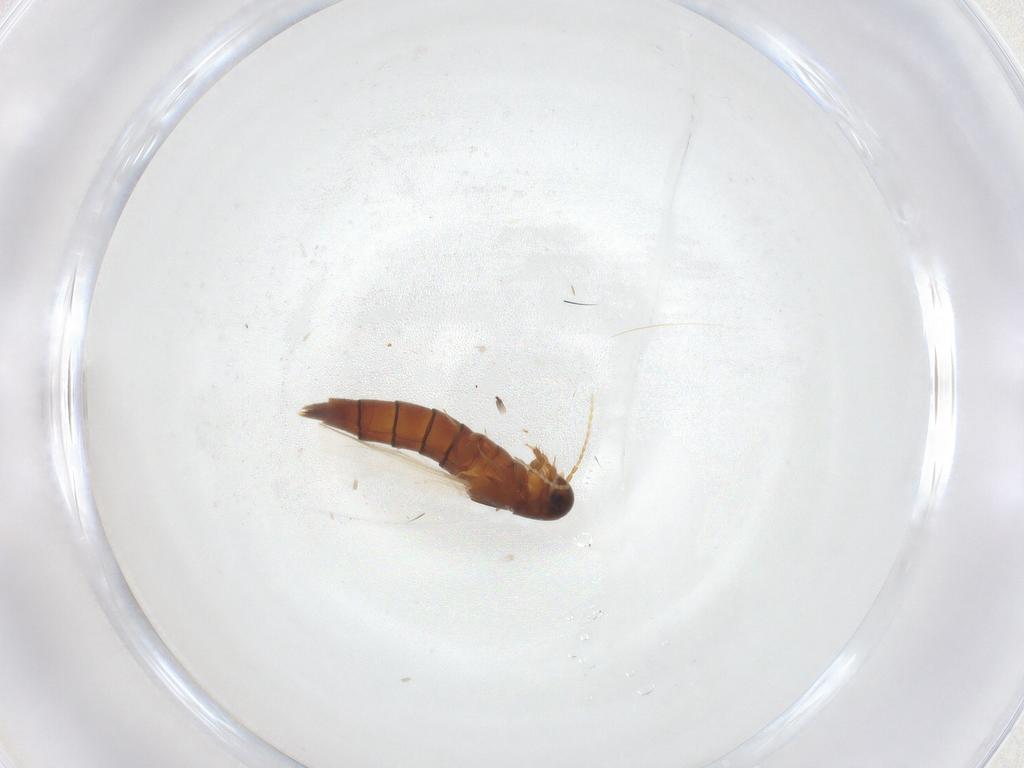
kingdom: Animalia
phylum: Arthropoda
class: Insecta
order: Coleoptera
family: Staphylinidae
